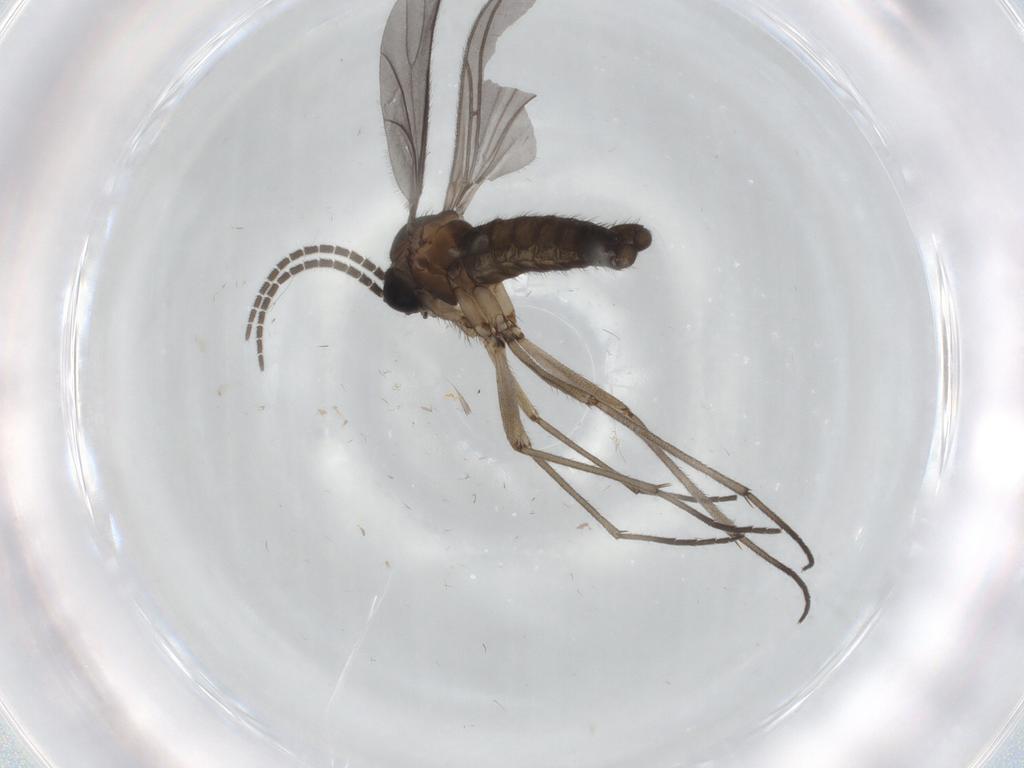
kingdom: Animalia
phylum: Arthropoda
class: Insecta
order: Diptera
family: Sciaridae
